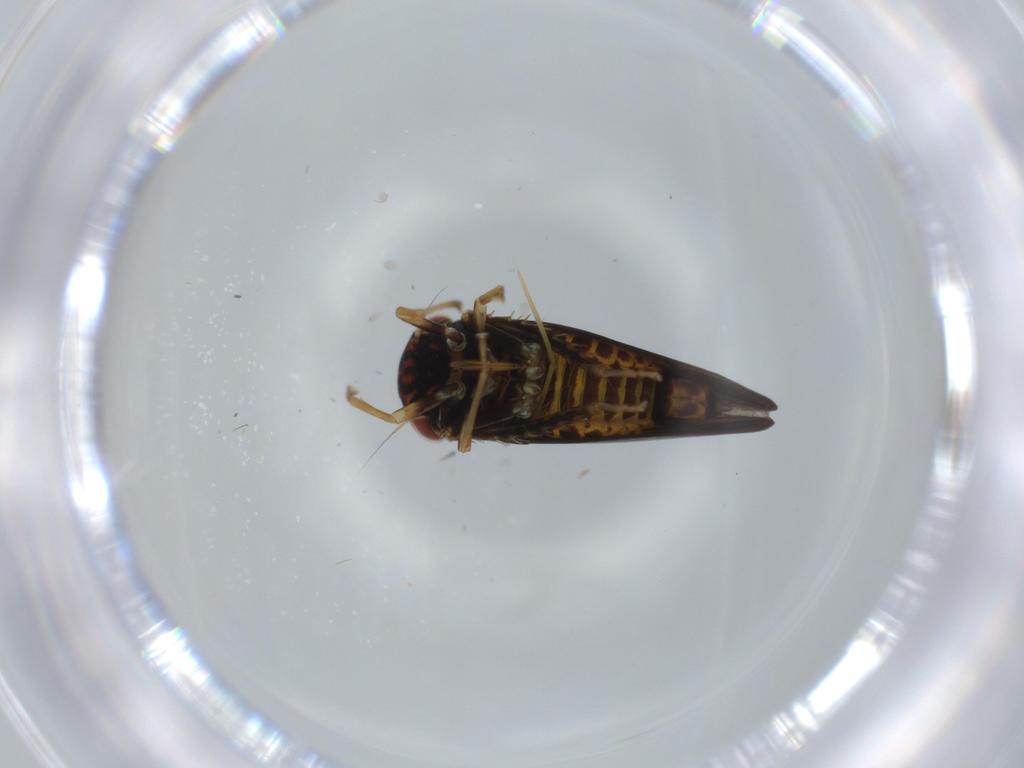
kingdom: Animalia
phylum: Arthropoda
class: Insecta
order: Hemiptera
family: Cicadellidae
